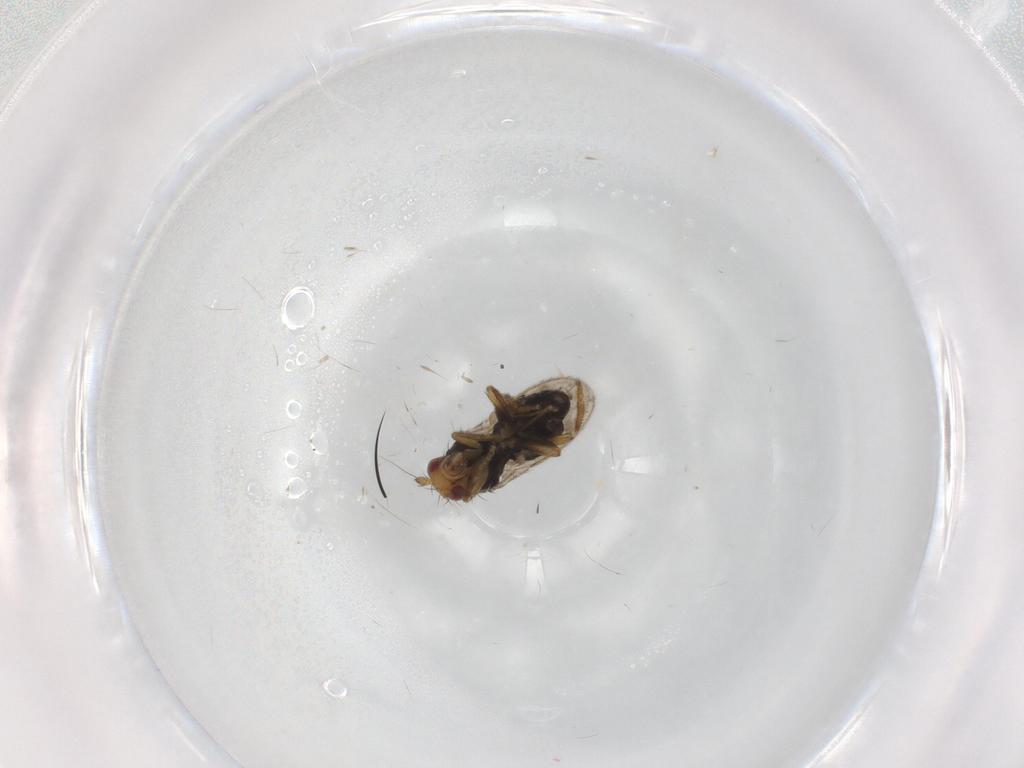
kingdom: Animalia
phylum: Arthropoda
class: Insecta
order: Diptera
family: Sphaeroceridae
